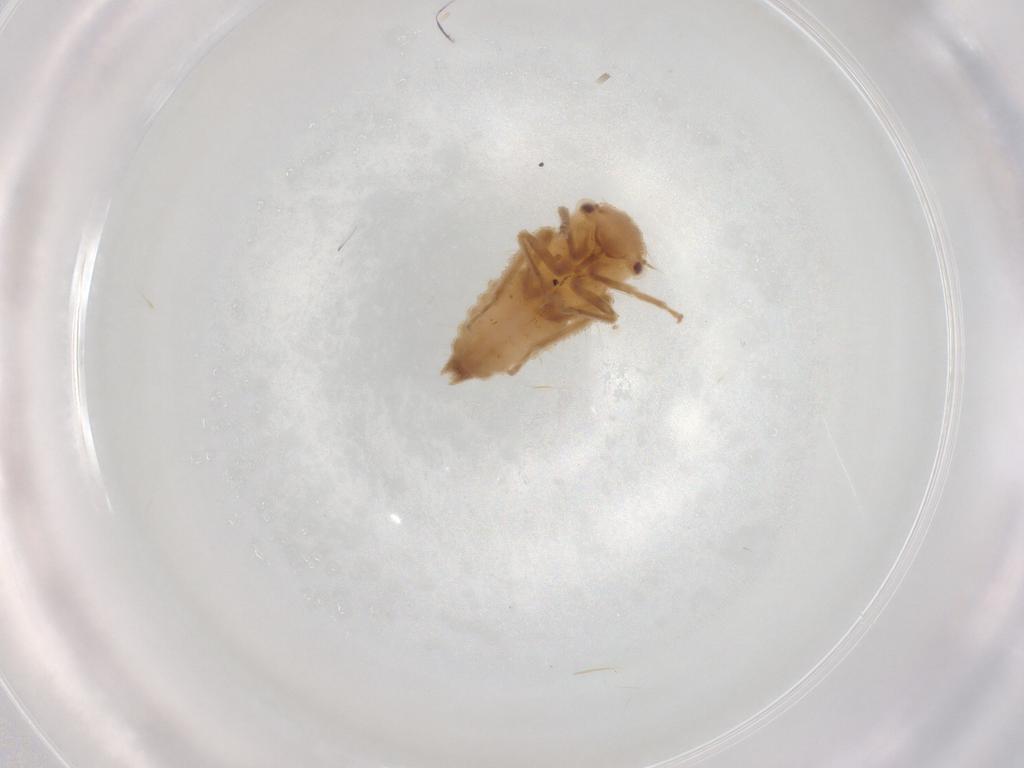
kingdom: Animalia
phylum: Arthropoda
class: Insecta
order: Hemiptera
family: Cicadellidae
